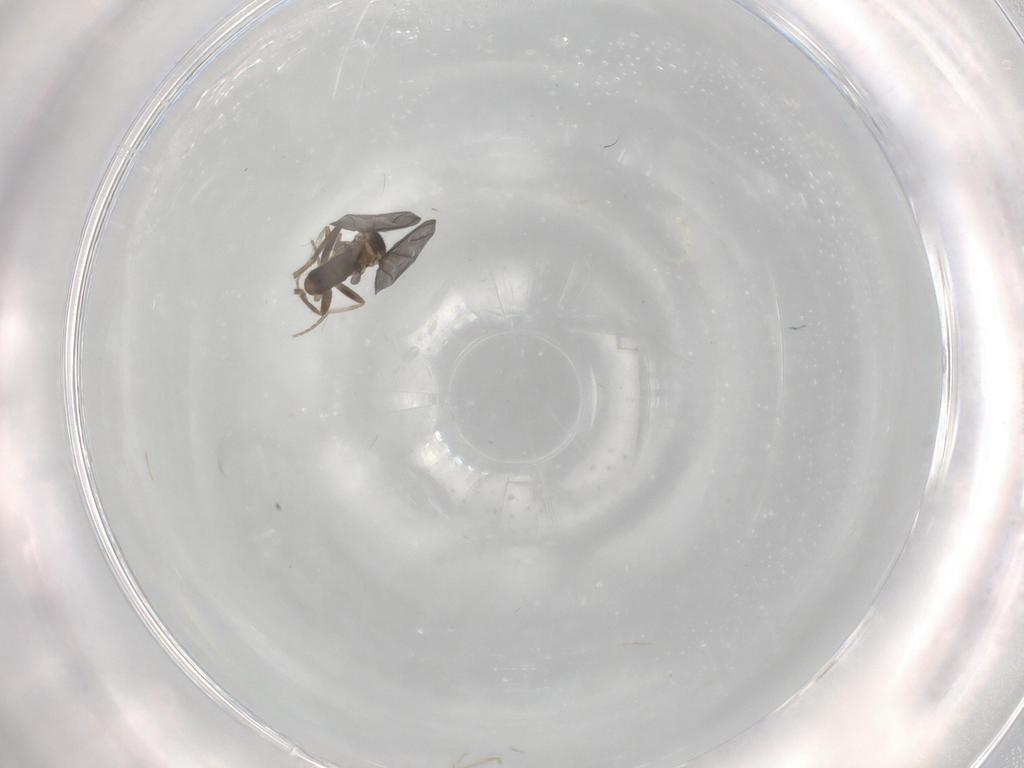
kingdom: Animalia
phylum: Arthropoda
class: Insecta
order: Diptera
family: Phoridae
